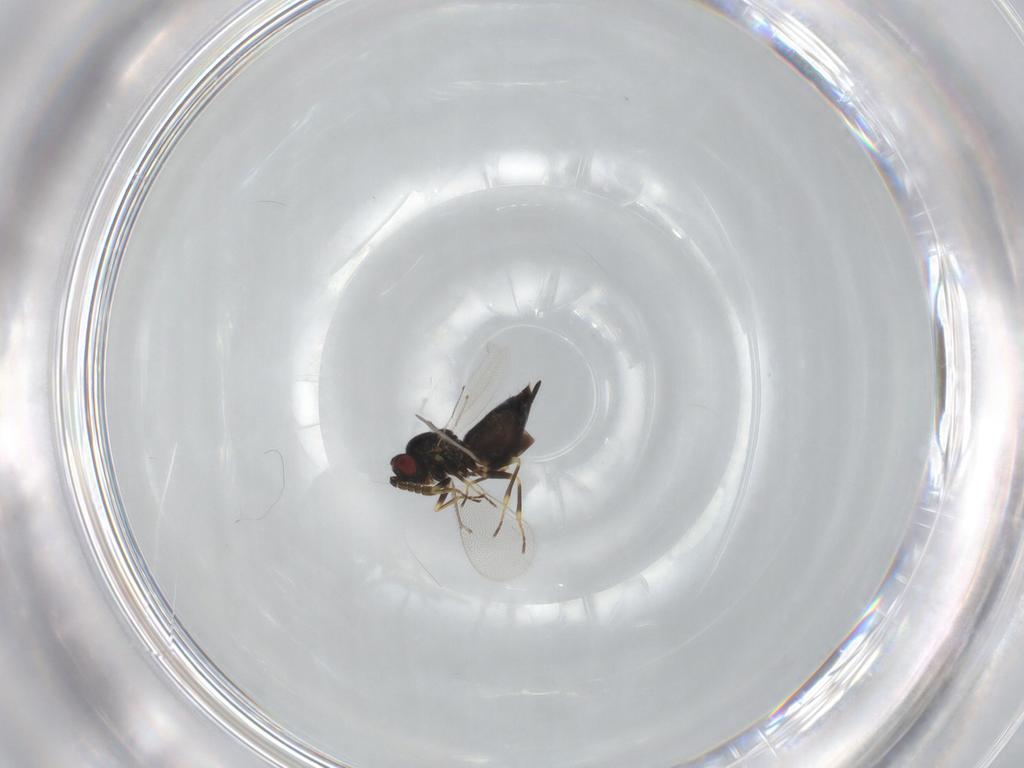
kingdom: Animalia
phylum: Arthropoda
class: Insecta
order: Hymenoptera
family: Eulophidae
